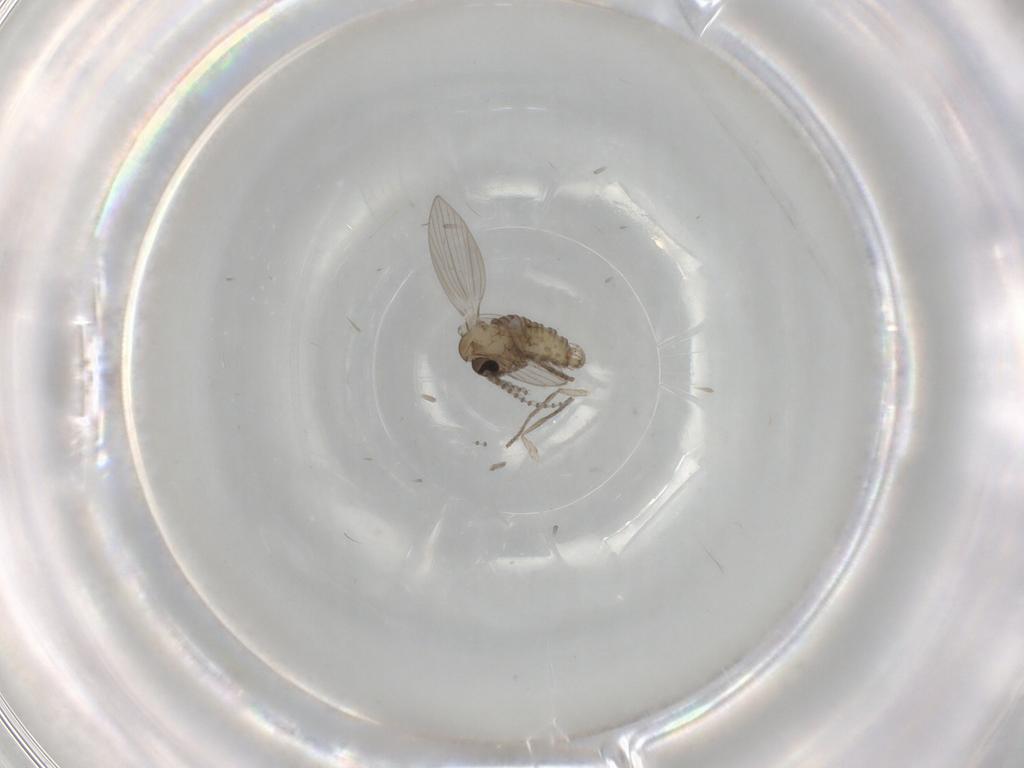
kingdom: Animalia
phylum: Arthropoda
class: Insecta
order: Diptera
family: Psychodidae
